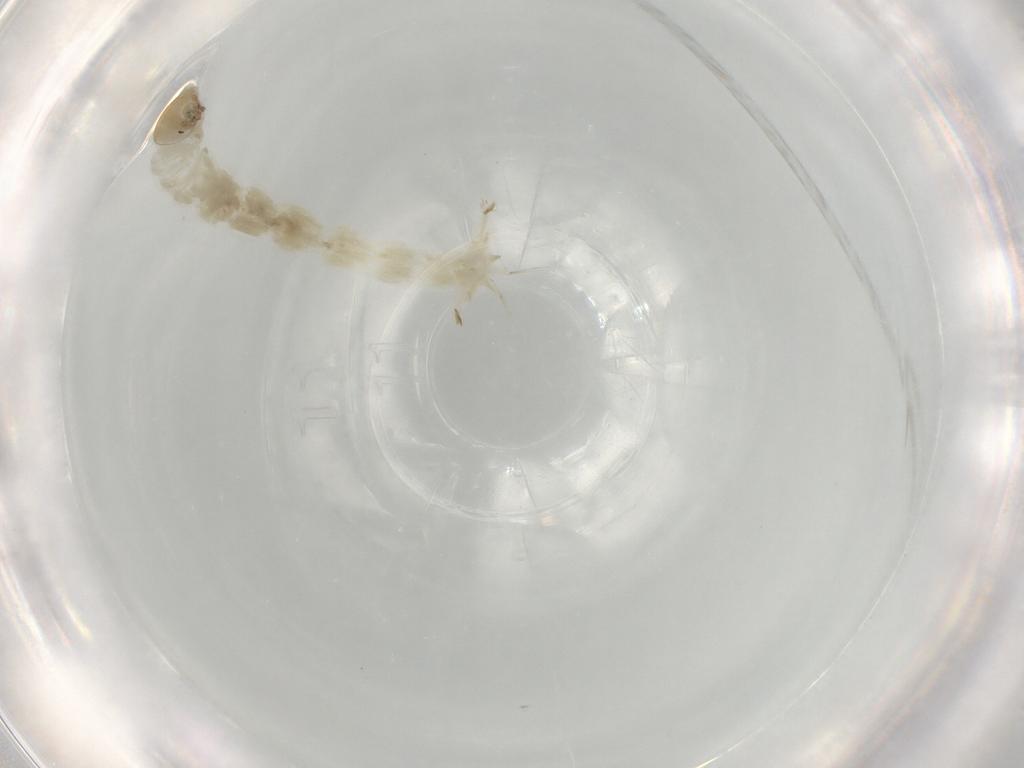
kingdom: Animalia
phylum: Arthropoda
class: Insecta
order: Diptera
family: Chironomidae
